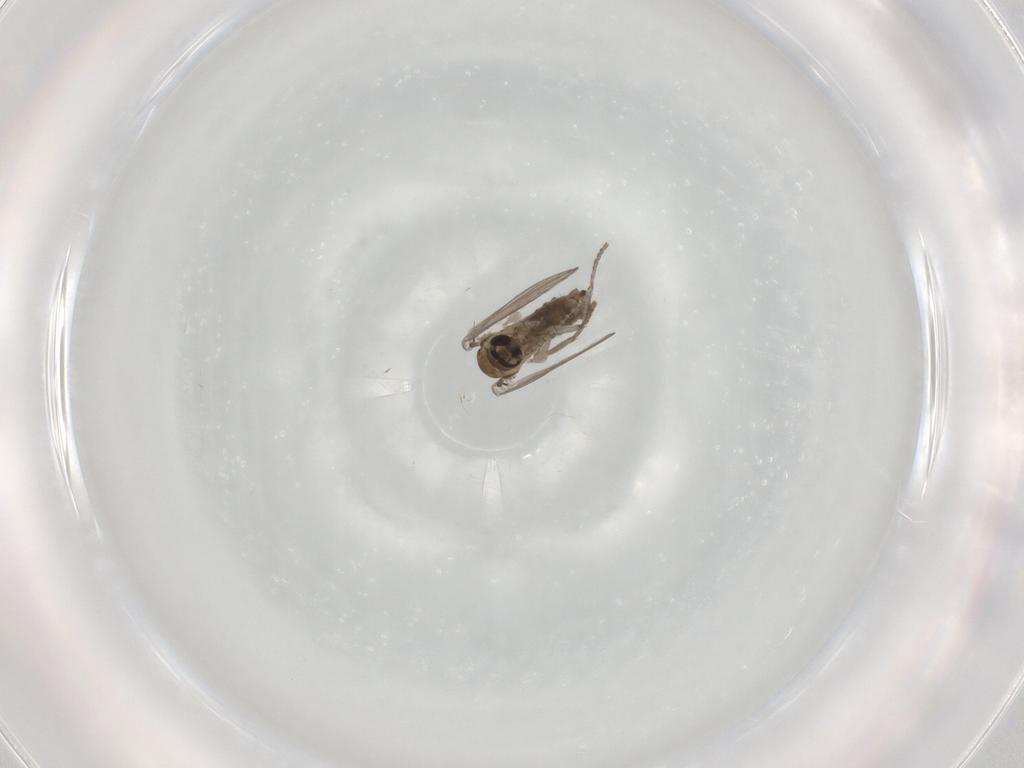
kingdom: Animalia
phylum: Arthropoda
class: Insecta
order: Diptera
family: Psychodidae
